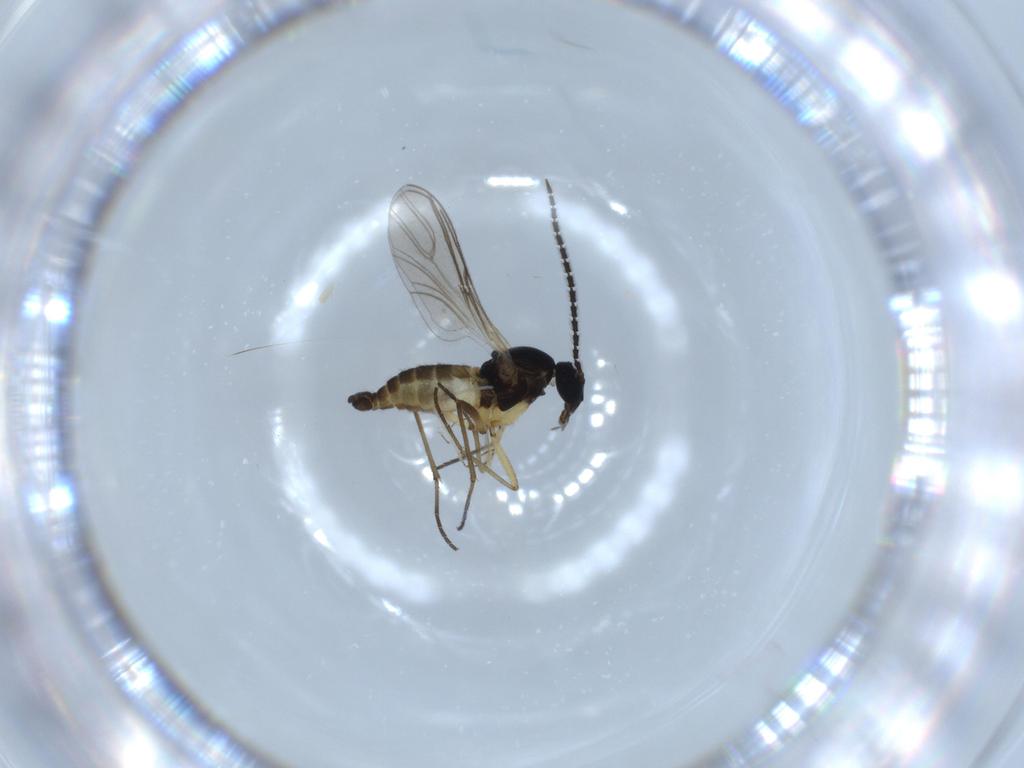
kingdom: Animalia
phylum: Arthropoda
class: Insecta
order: Diptera
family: Sciaridae
